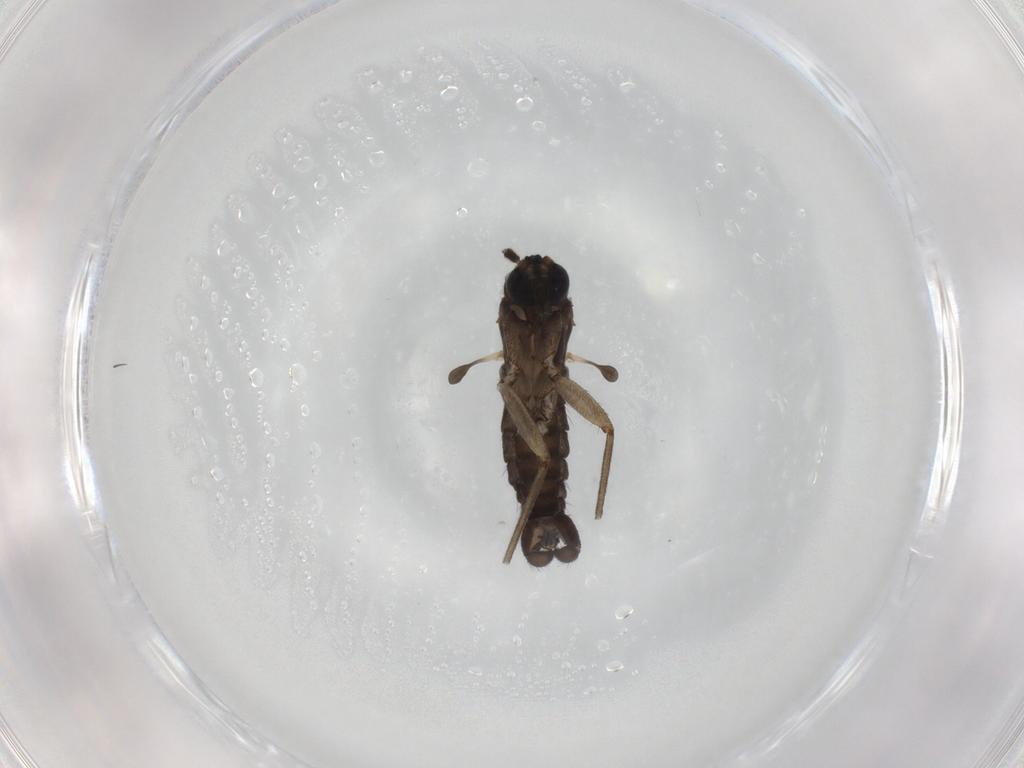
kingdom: Animalia
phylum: Arthropoda
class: Insecta
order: Diptera
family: Sciaridae
